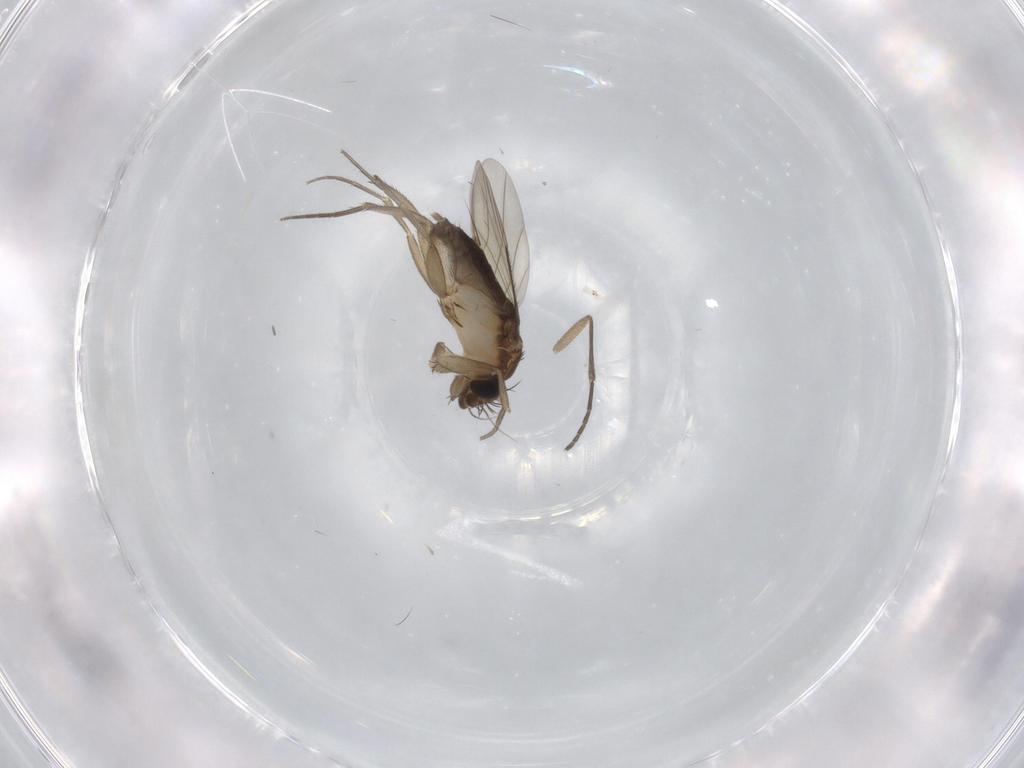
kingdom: Animalia
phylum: Arthropoda
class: Insecta
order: Diptera
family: Phoridae
